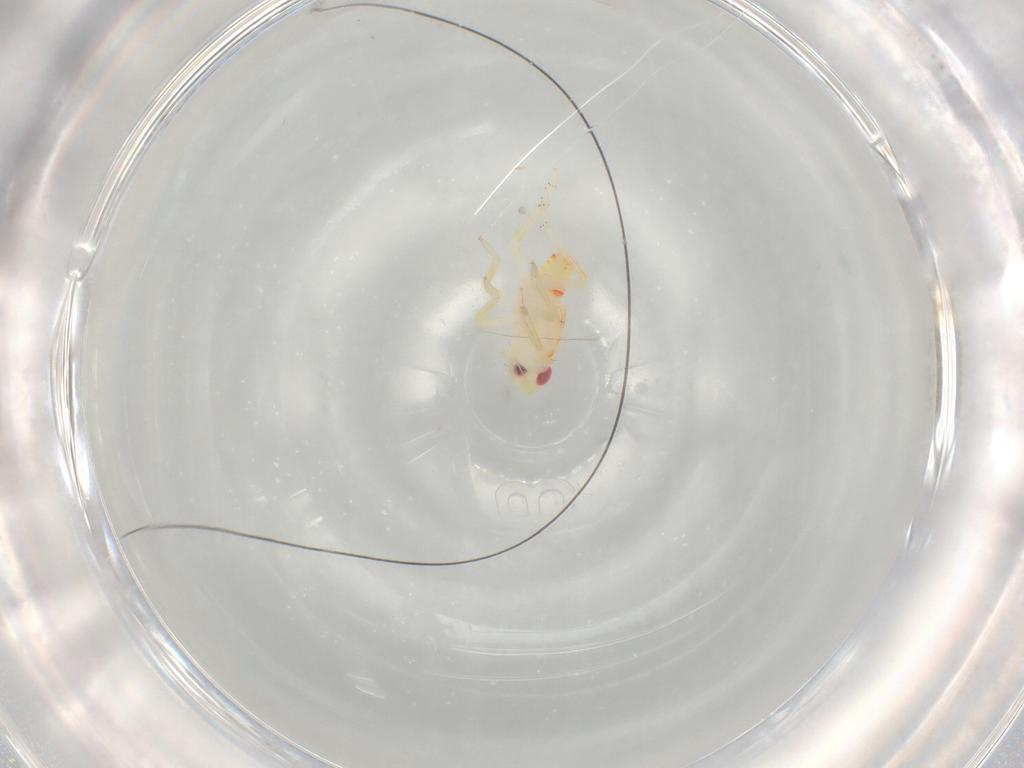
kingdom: Animalia
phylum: Arthropoda
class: Insecta
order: Hemiptera
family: Tropiduchidae
